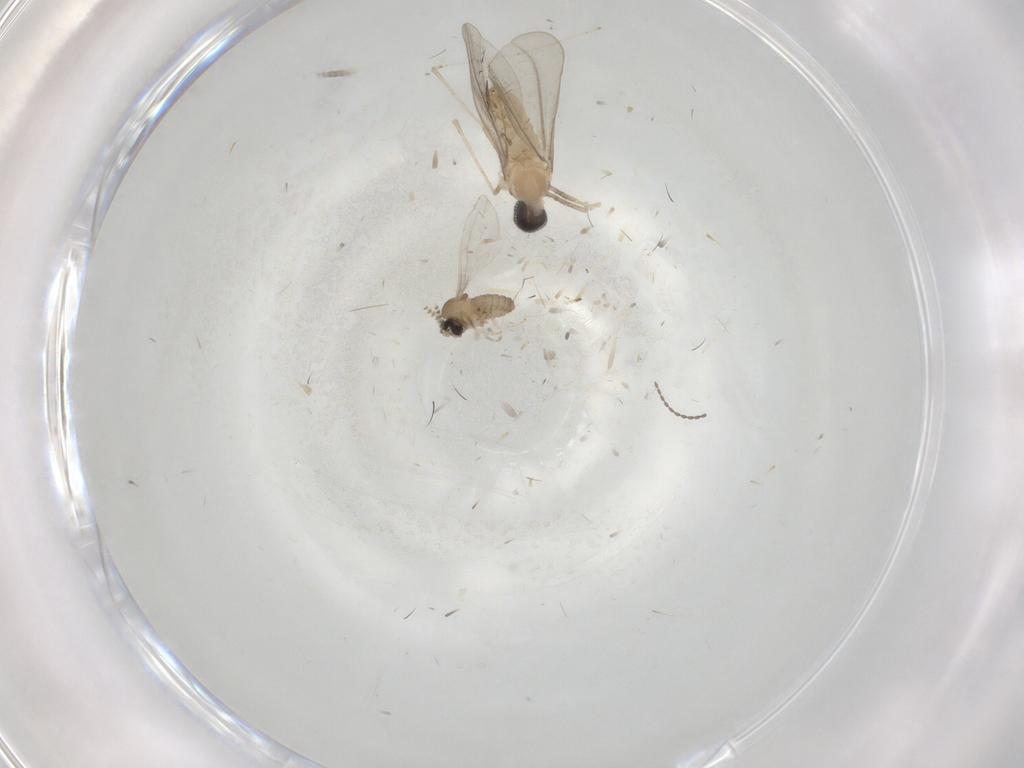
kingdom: Animalia
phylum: Arthropoda
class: Insecta
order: Diptera
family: Cecidomyiidae
